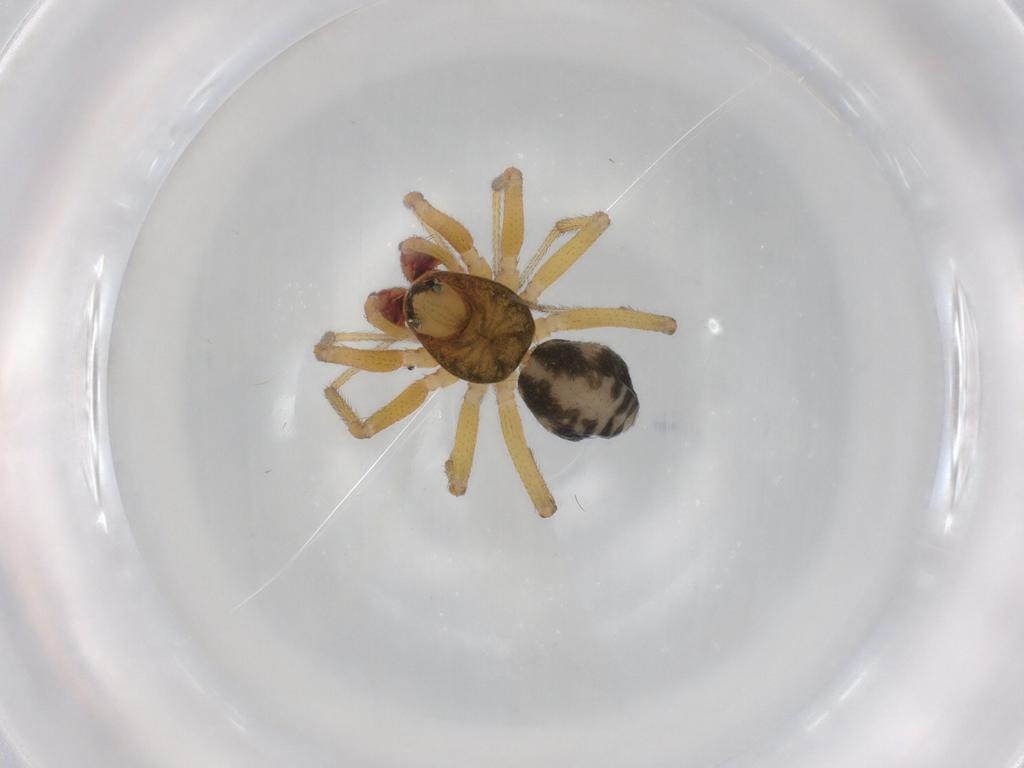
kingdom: Animalia
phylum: Arthropoda
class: Arachnida
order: Araneae
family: Linyphiidae
